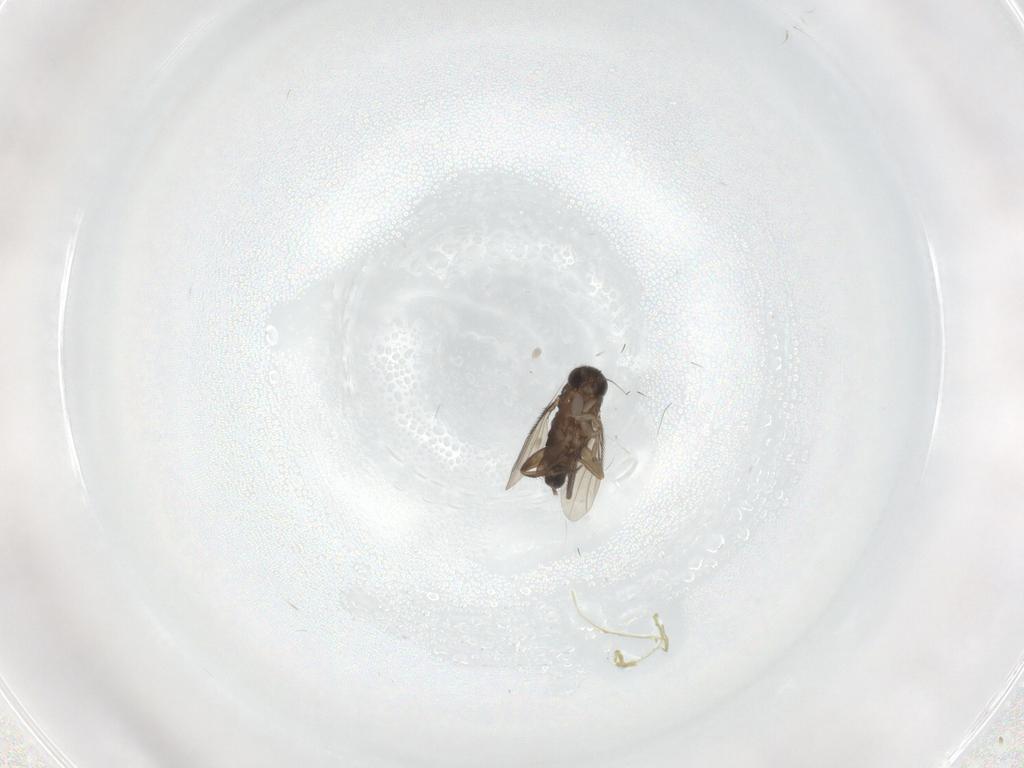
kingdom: Animalia
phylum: Arthropoda
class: Insecta
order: Diptera
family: Phoridae
